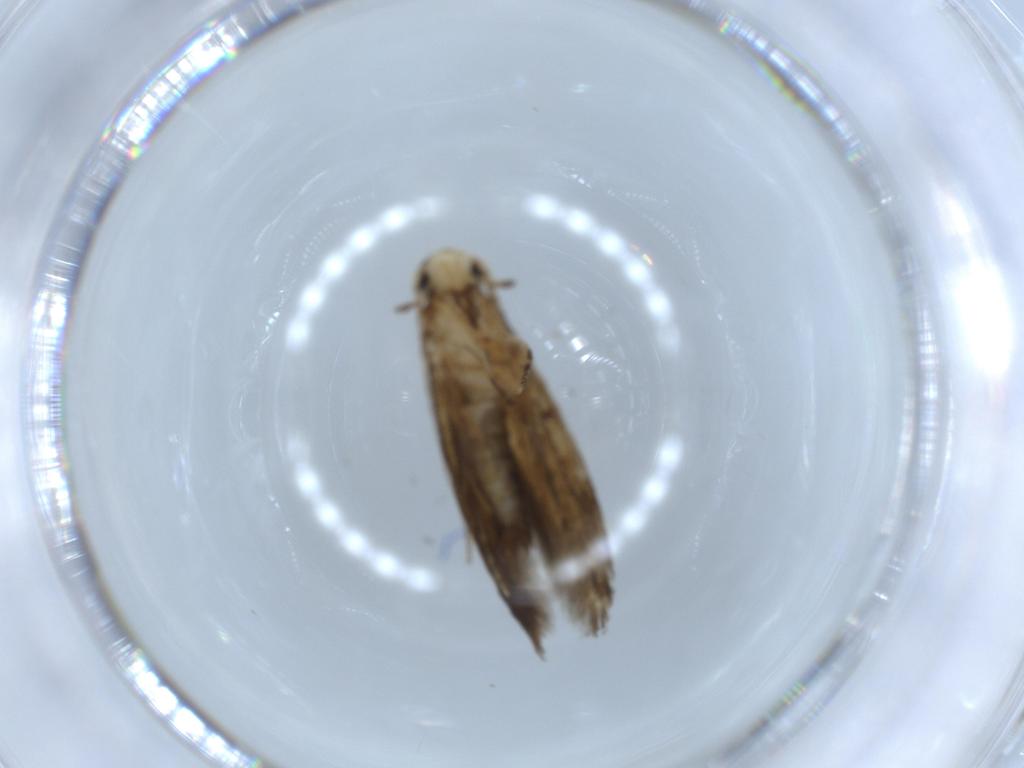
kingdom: Animalia
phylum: Arthropoda
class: Insecta
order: Lepidoptera
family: Tineidae
